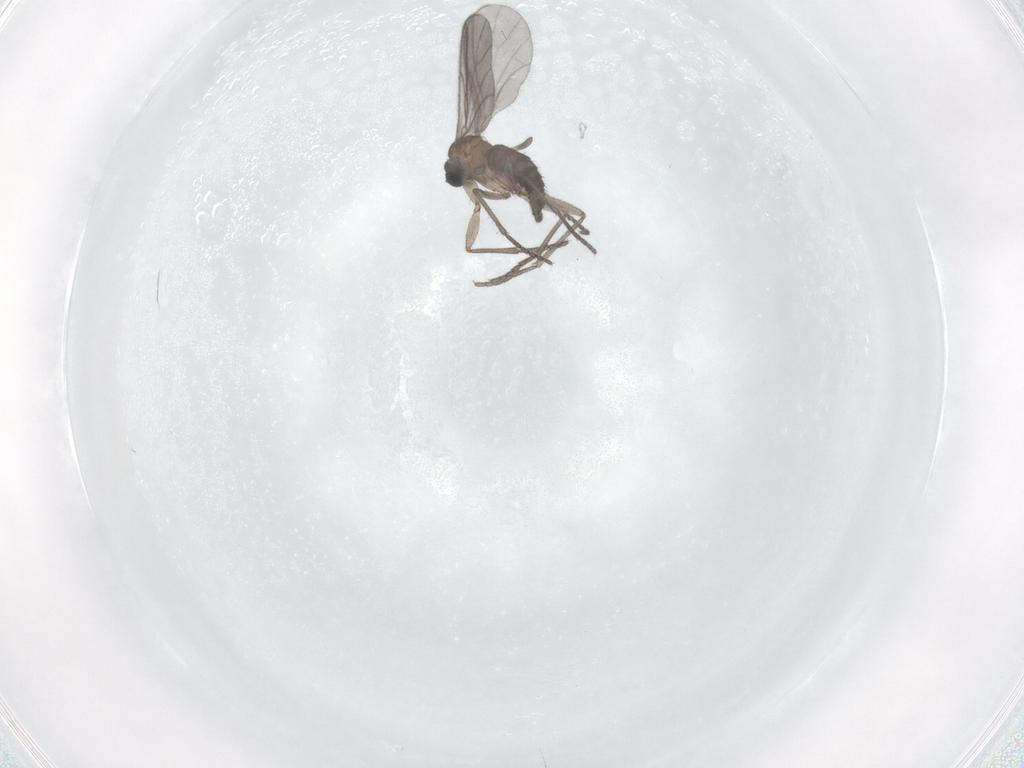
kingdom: Animalia
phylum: Arthropoda
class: Insecta
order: Diptera
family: Sciaridae
